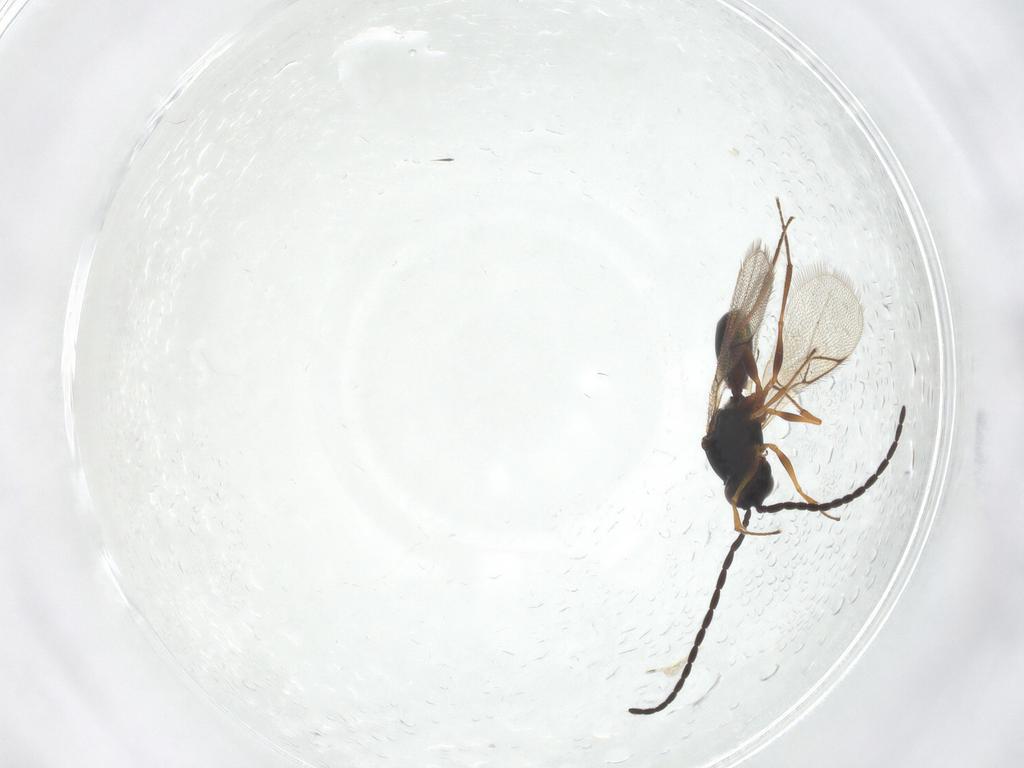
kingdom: Animalia
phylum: Arthropoda
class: Insecta
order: Hymenoptera
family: Figitidae
